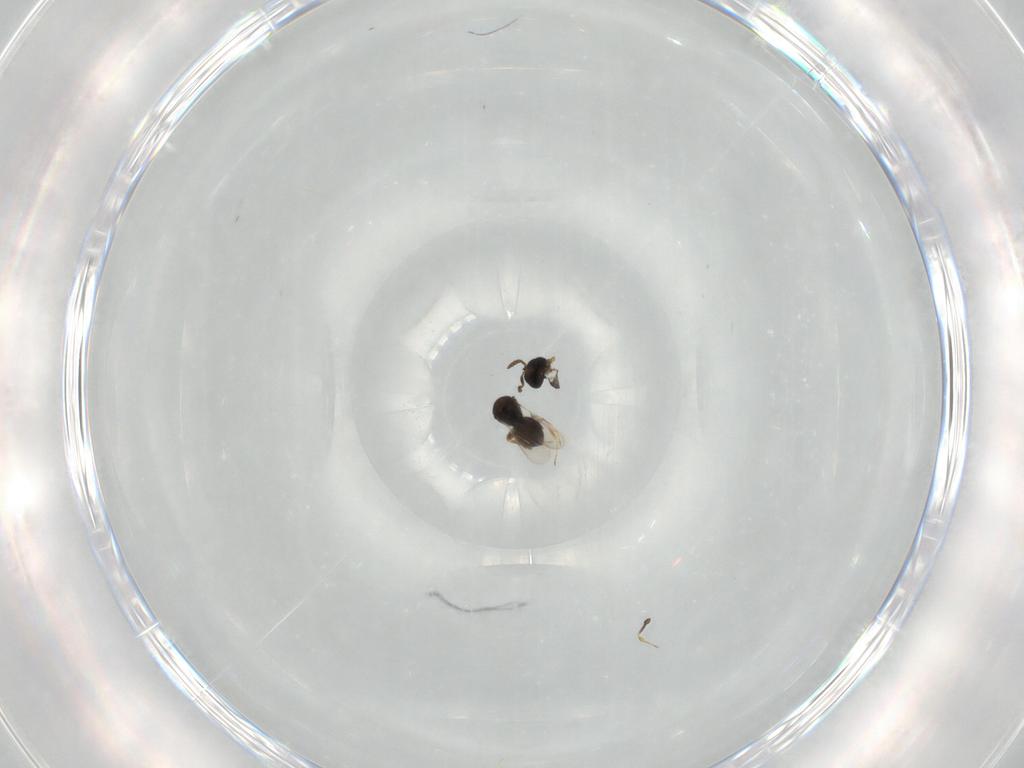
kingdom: Animalia
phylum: Arthropoda
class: Insecta
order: Hymenoptera
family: Scelionidae
